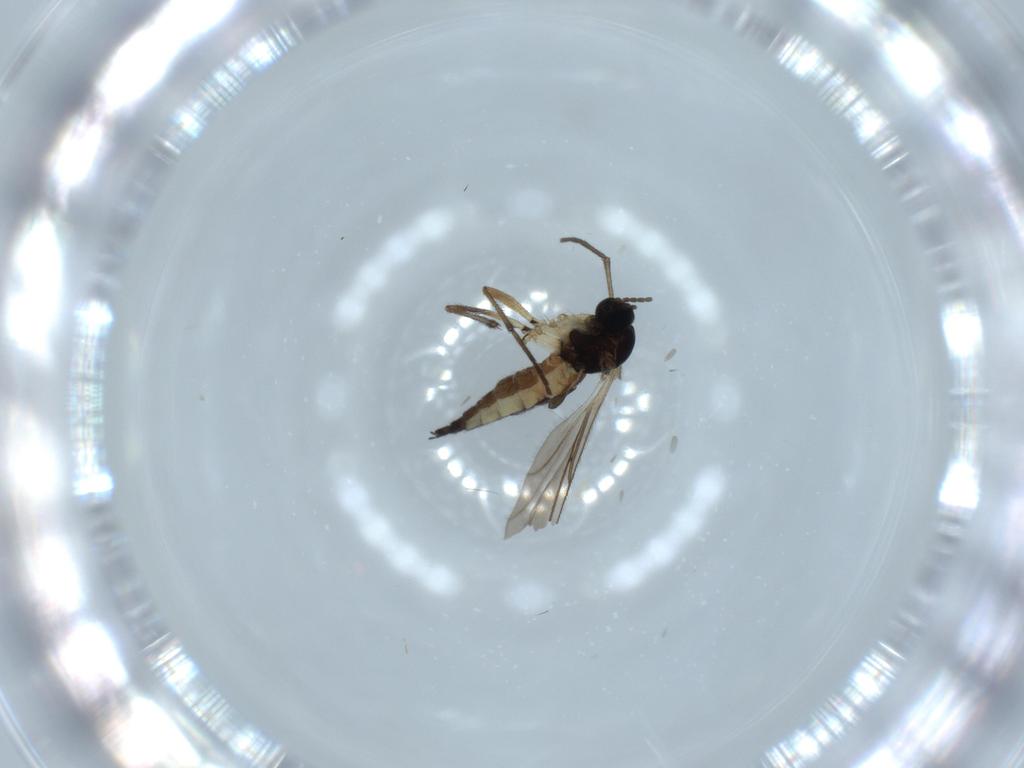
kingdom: Animalia
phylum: Arthropoda
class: Insecta
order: Diptera
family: Sciaridae
